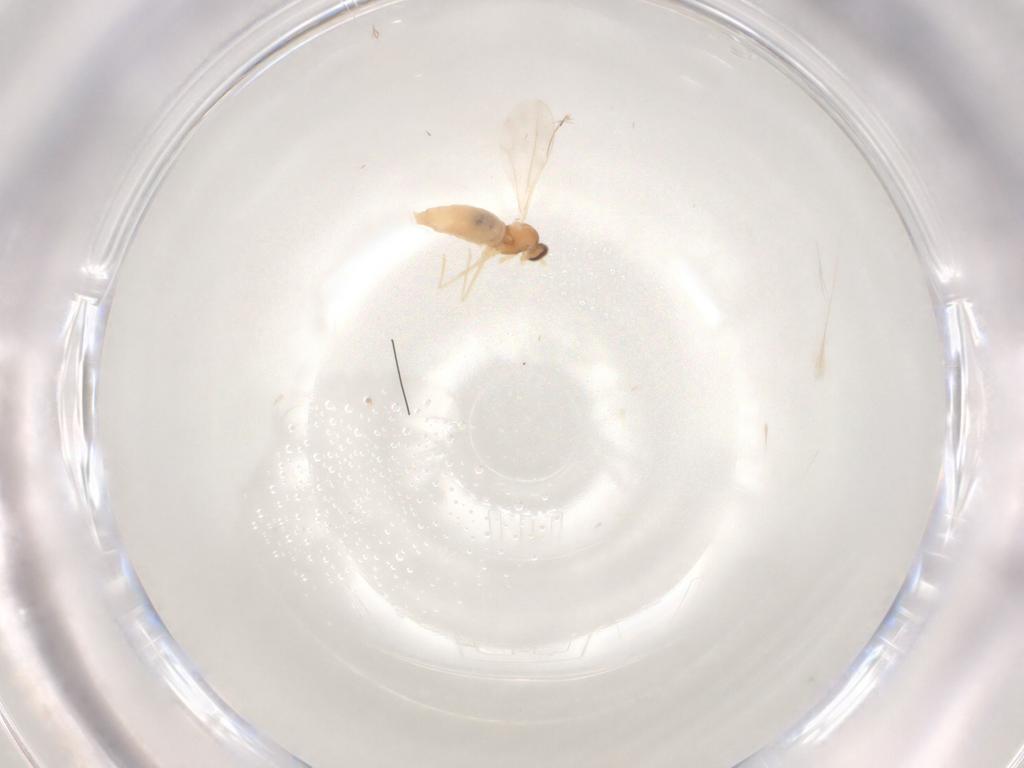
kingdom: Animalia
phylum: Arthropoda
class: Insecta
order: Diptera
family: Cecidomyiidae
